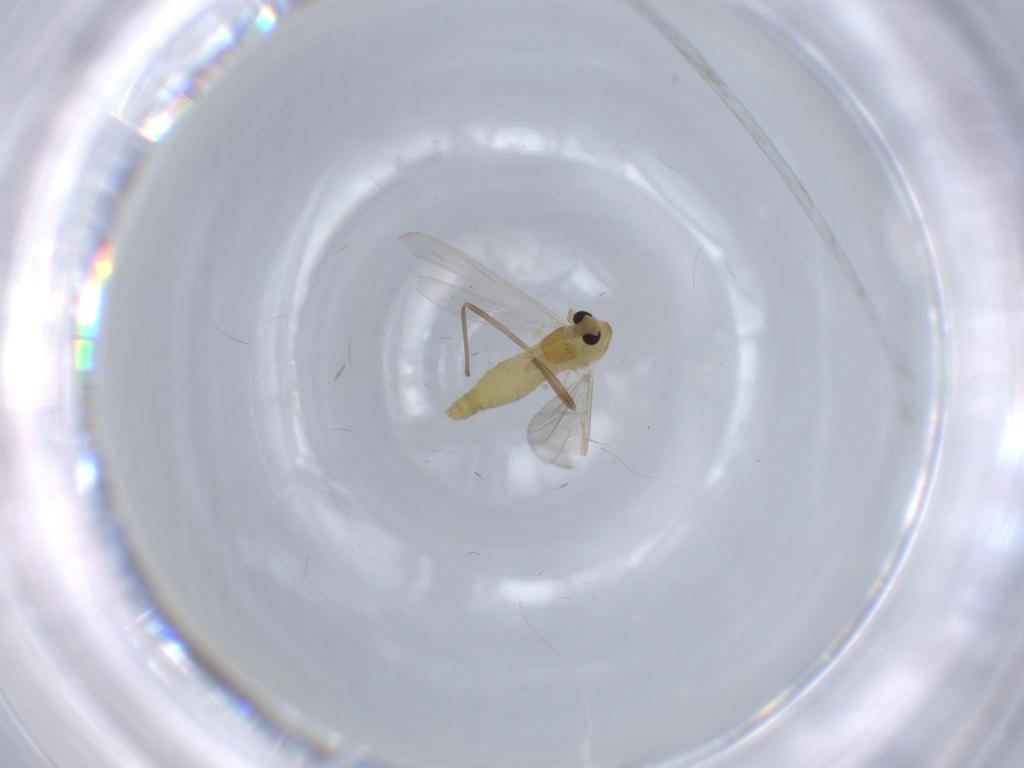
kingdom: Animalia
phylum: Arthropoda
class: Insecta
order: Diptera
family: Chironomidae
